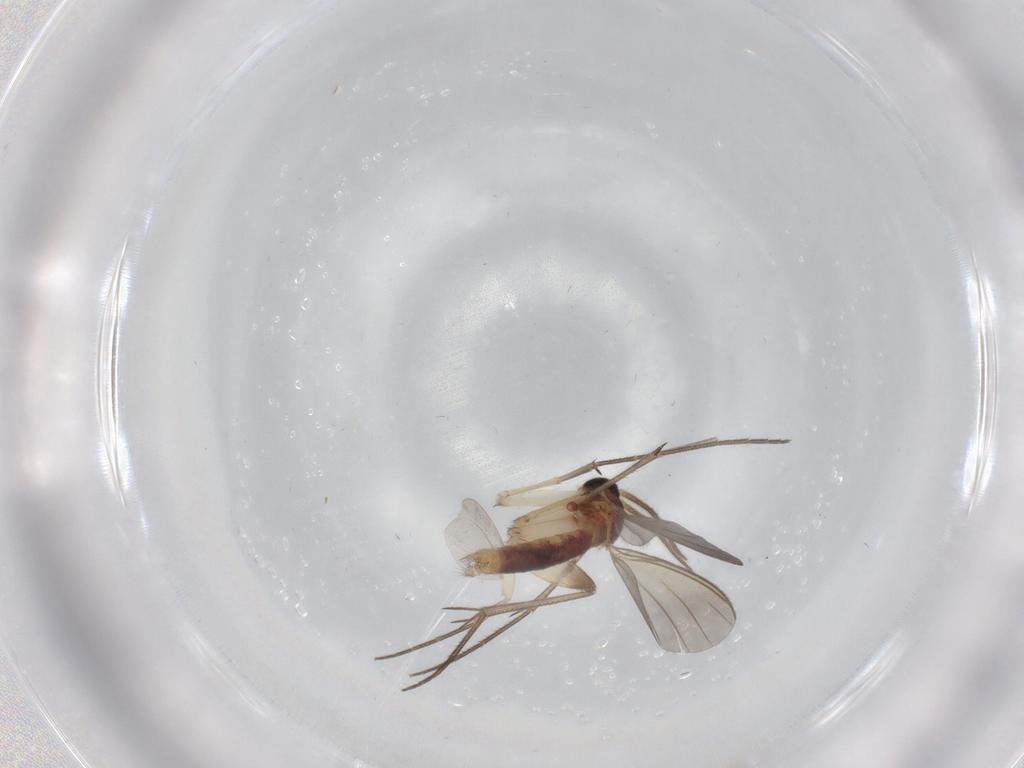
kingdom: Animalia
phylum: Arthropoda
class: Insecta
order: Diptera
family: Mycetophilidae
